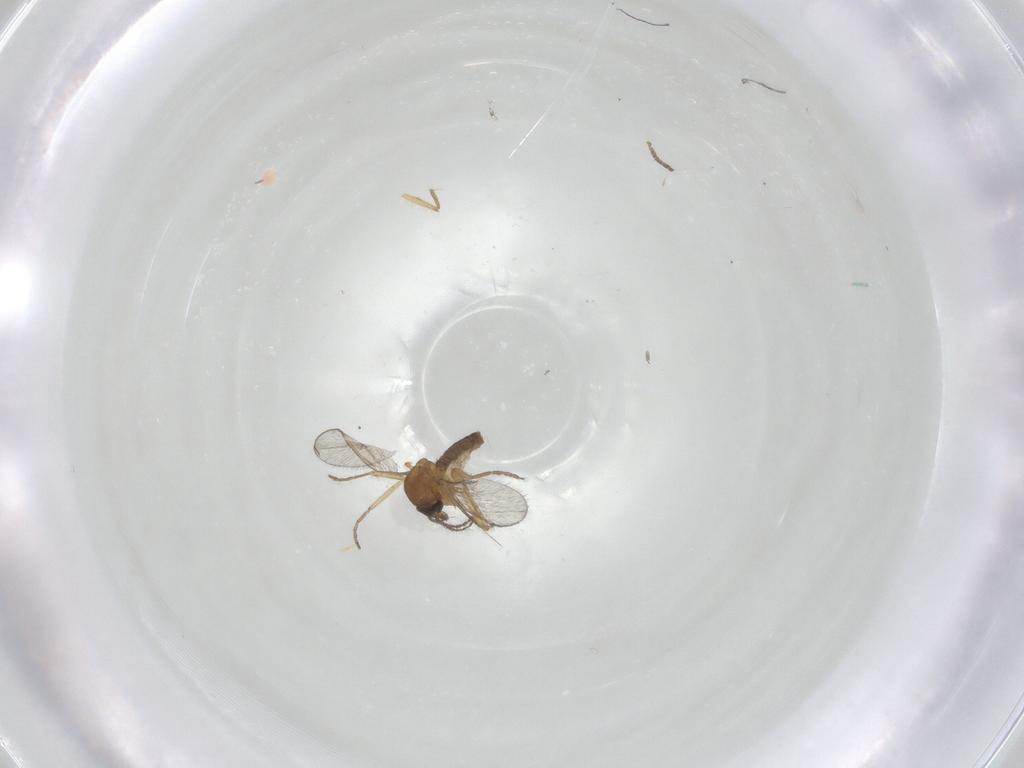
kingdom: Animalia
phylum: Arthropoda
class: Insecta
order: Diptera
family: Ceratopogonidae
